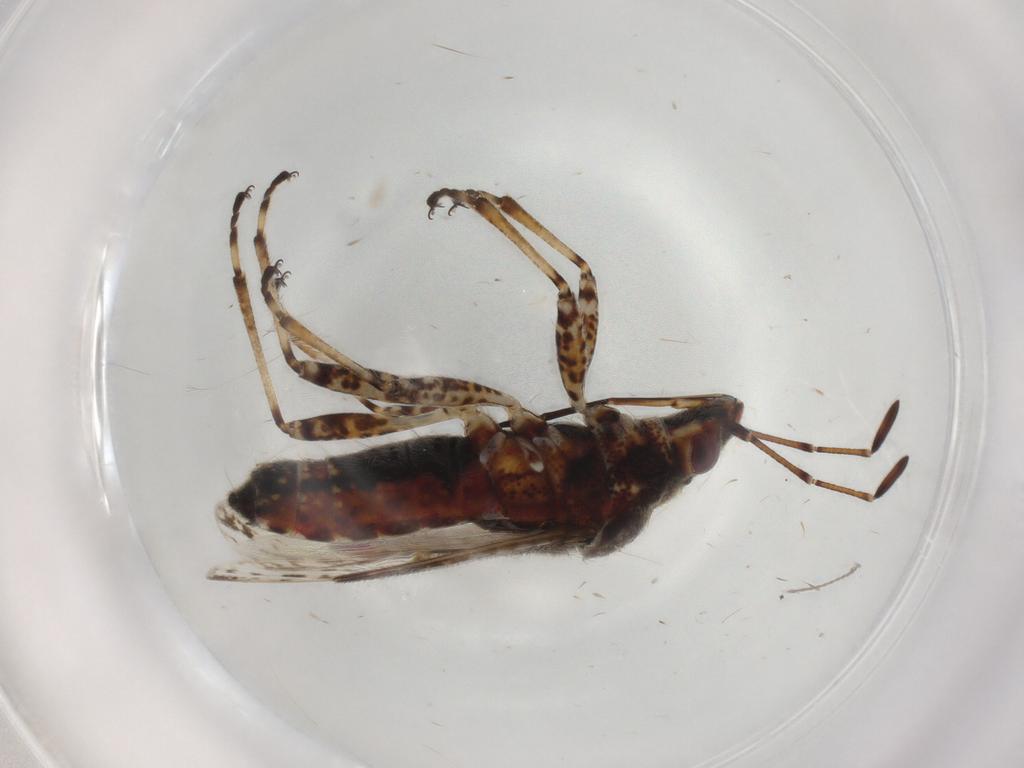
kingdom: Animalia
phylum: Arthropoda
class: Insecta
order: Hemiptera
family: Lygaeidae
